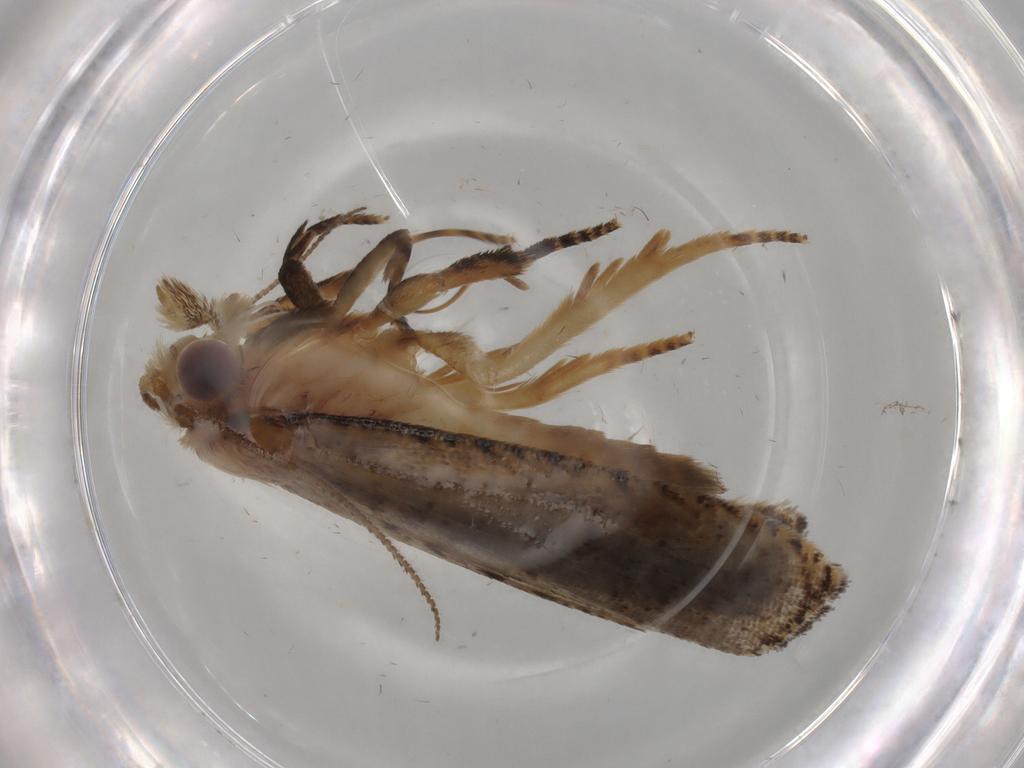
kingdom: Animalia
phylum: Arthropoda
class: Insecta
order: Lepidoptera
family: Tortricidae
